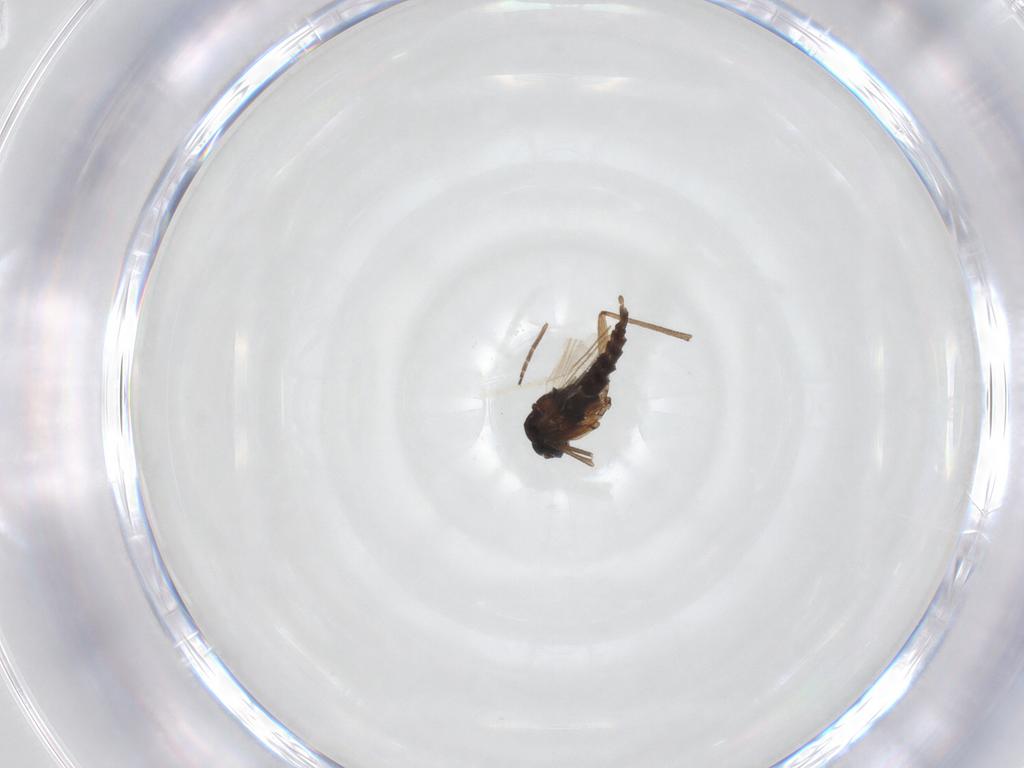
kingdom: Animalia
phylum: Arthropoda
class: Insecta
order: Diptera
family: Sciaridae
